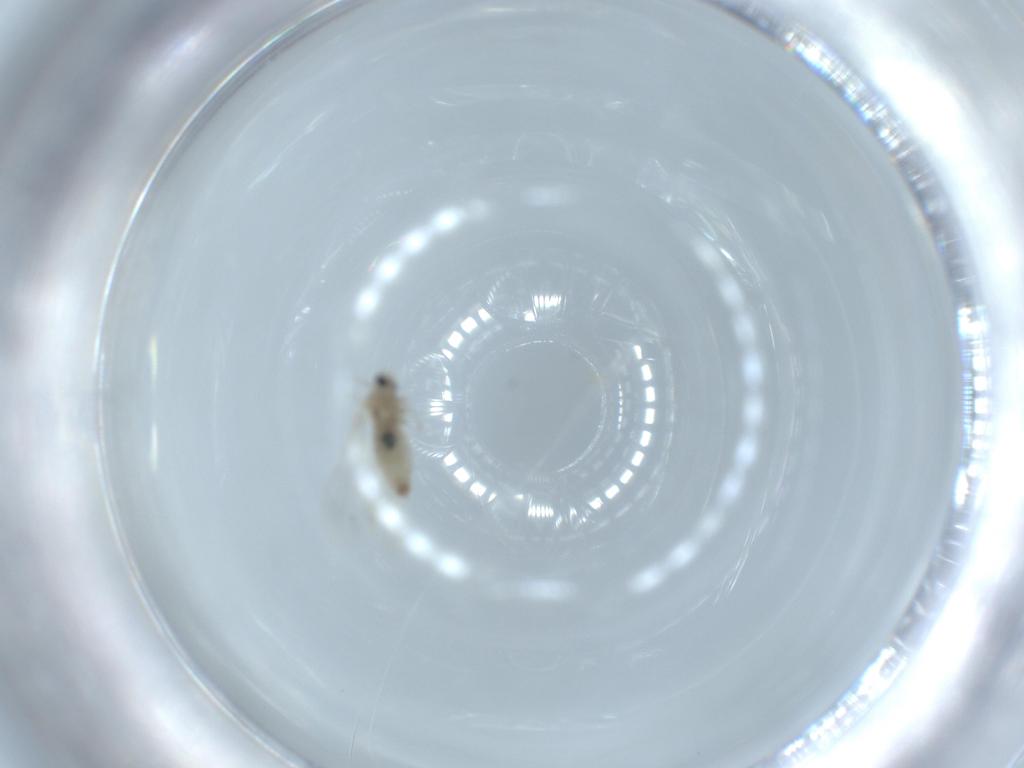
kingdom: Animalia
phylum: Arthropoda
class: Insecta
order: Diptera
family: Cecidomyiidae
